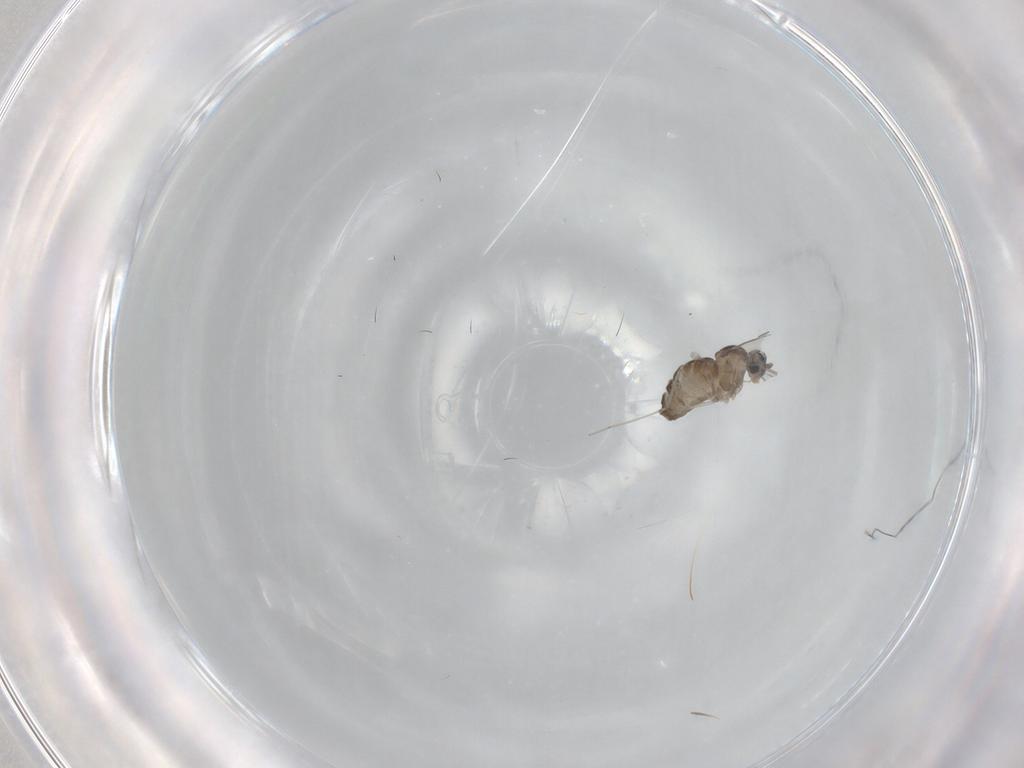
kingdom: Animalia
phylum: Arthropoda
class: Insecta
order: Diptera
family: Cecidomyiidae
